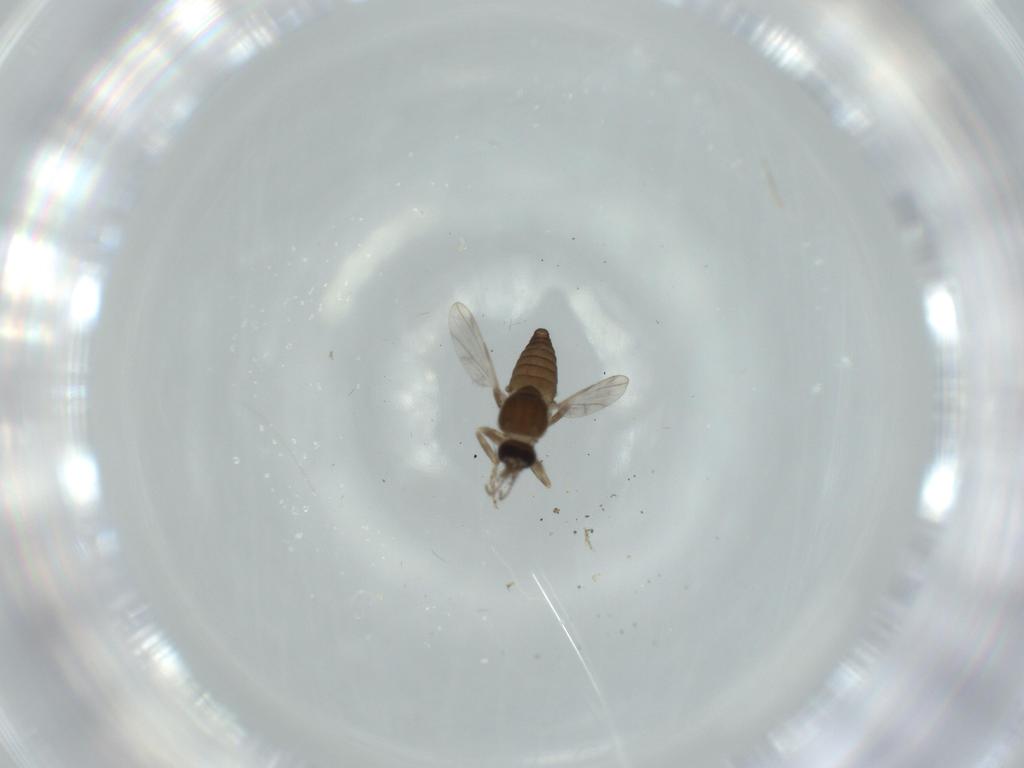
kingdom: Animalia
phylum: Arthropoda
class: Insecta
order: Diptera
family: Ceratopogonidae
